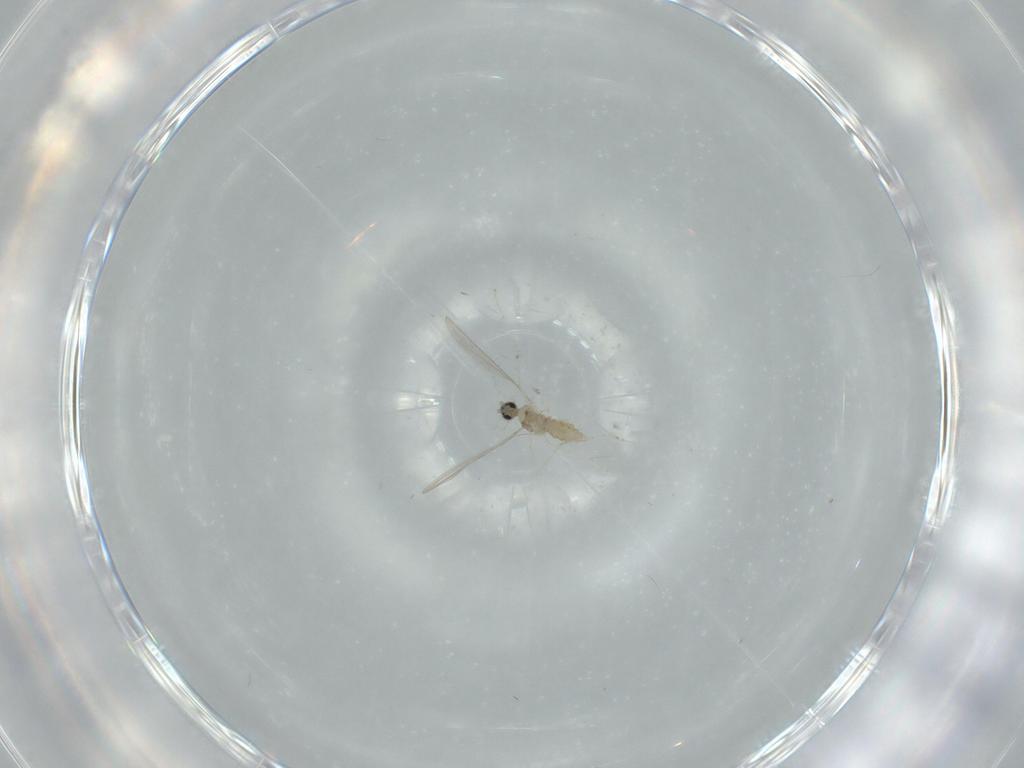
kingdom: Animalia
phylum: Arthropoda
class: Insecta
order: Diptera
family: Cecidomyiidae
